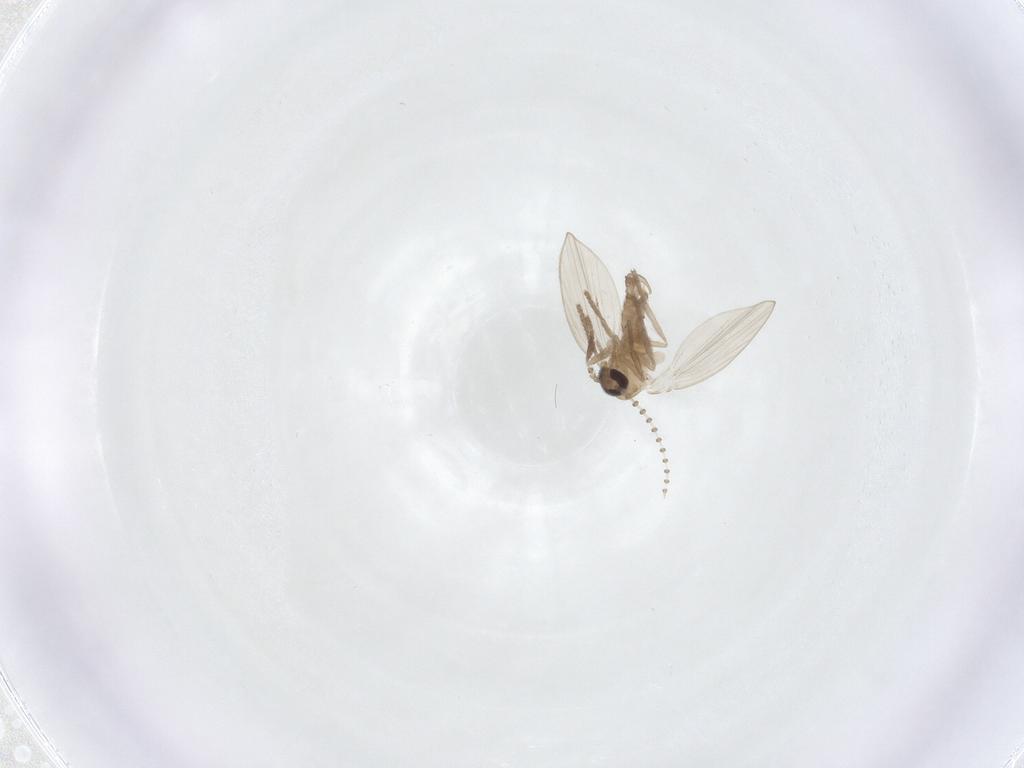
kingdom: Animalia
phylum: Arthropoda
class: Insecta
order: Diptera
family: Psychodidae
